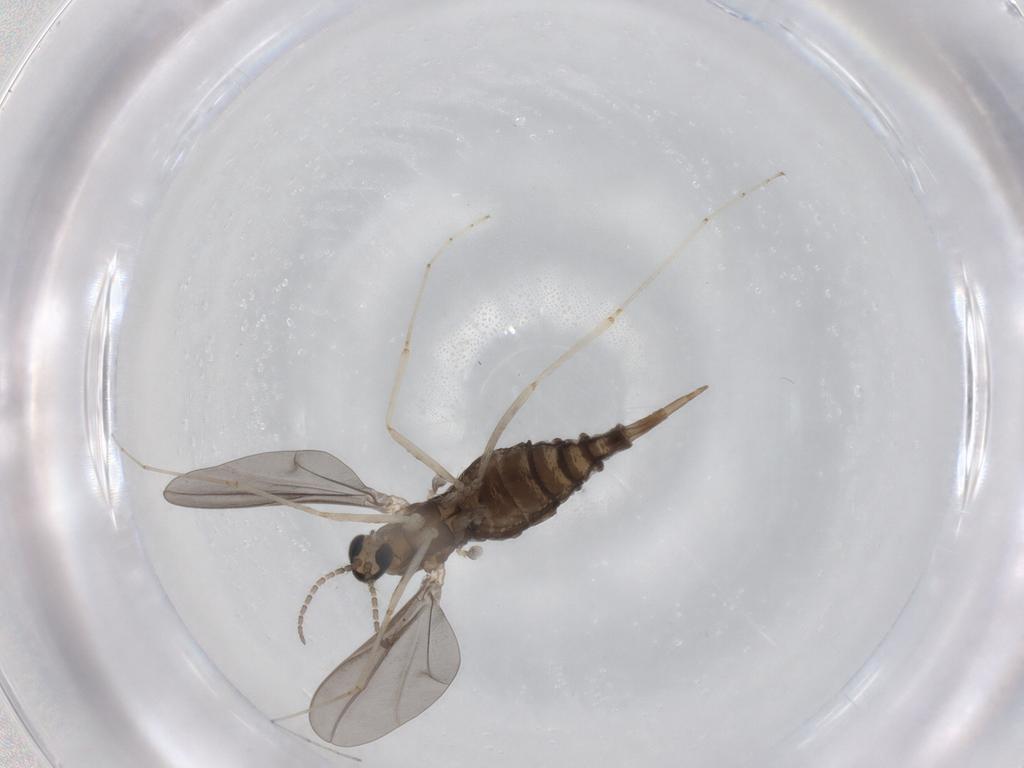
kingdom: Animalia
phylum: Arthropoda
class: Insecta
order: Diptera
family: Cecidomyiidae
